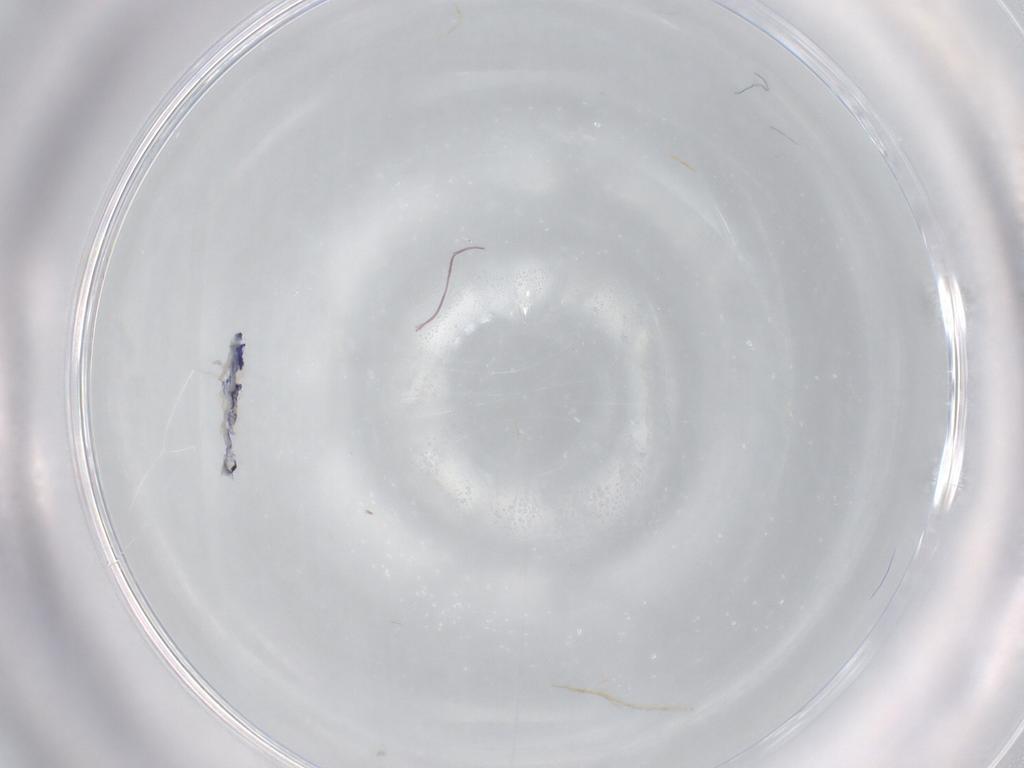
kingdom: Animalia
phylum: Arthropoda
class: Collembola
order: Entomobryomorpha
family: Entomobryidae
